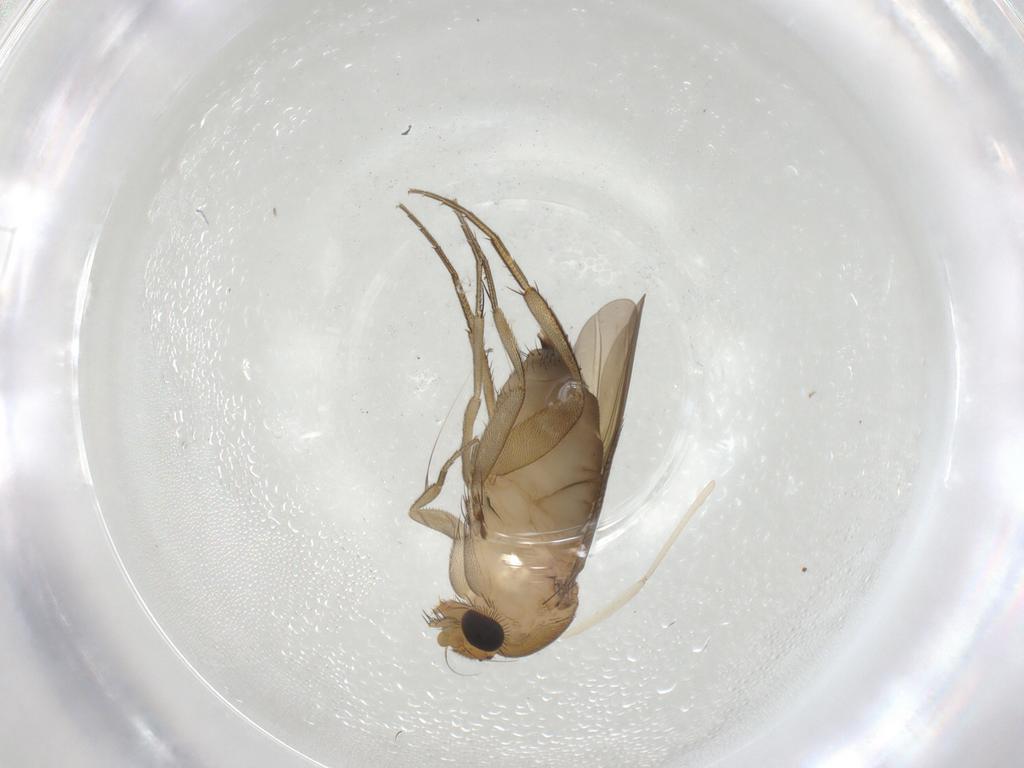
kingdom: Animalia
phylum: Arthropoda
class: Insecta
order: Diptera
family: Phoridae
